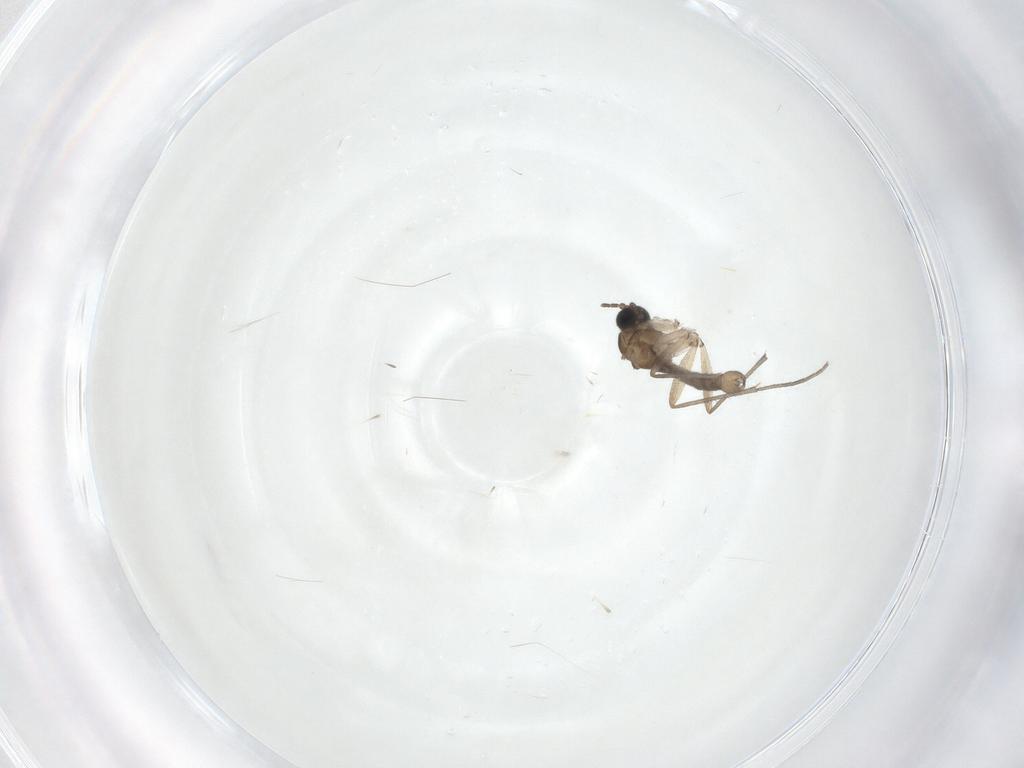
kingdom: Animalia
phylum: Arthropoda
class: Insecta
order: Diptera
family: Sciaridae
